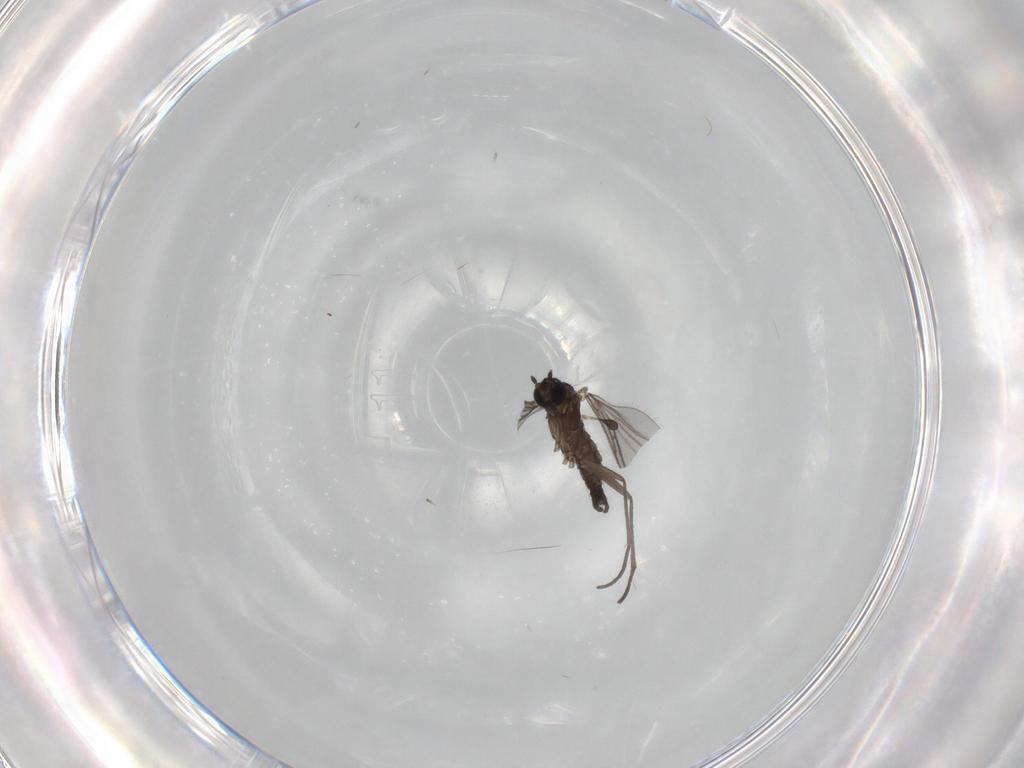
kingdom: Animalia
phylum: Arthropoda
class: Insecta
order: Diptera
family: Sciaridae
